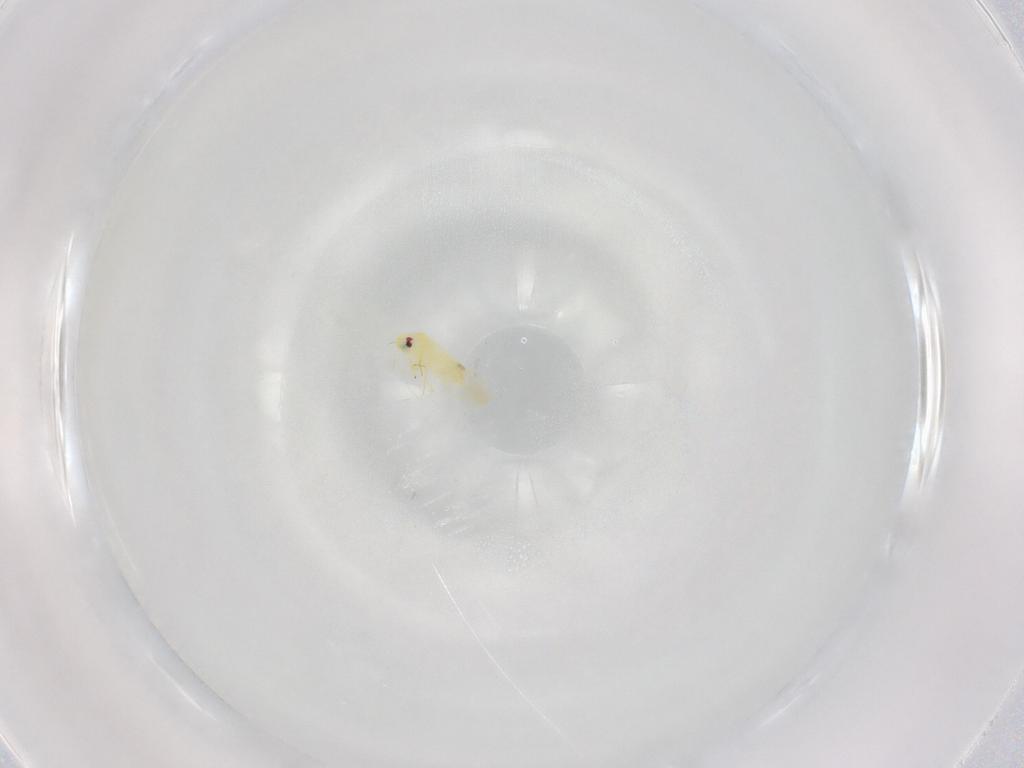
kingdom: Animalia
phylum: Arthropoda
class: Insecta
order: Hemiptera
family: Aleyrodidae
